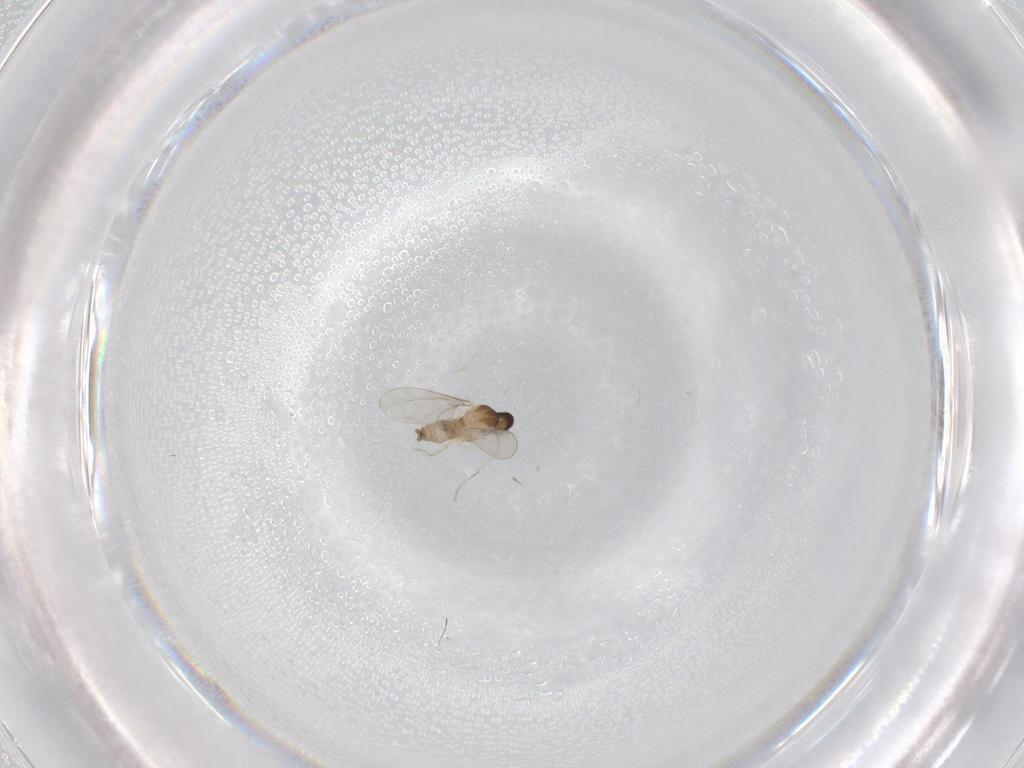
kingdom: Animalia
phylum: Arthropoda
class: Insecta
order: Diptera
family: Cecidomyiidae
